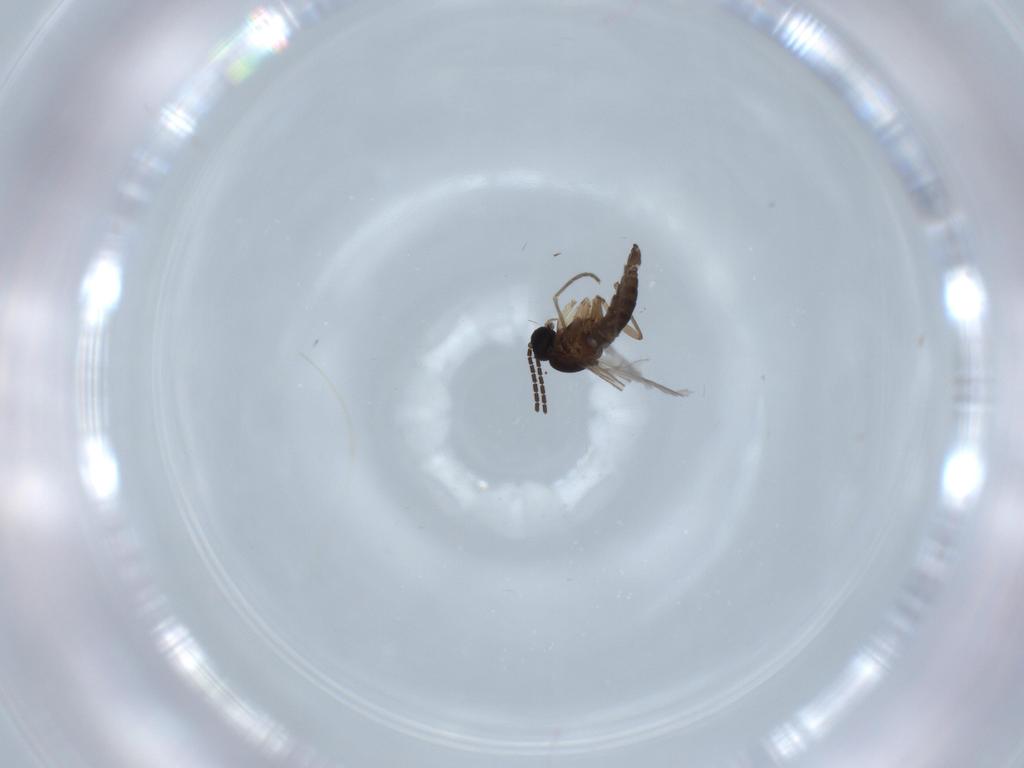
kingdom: Animalia
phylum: Arthropoda
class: Insecta
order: Diptera
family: Sciaridae
